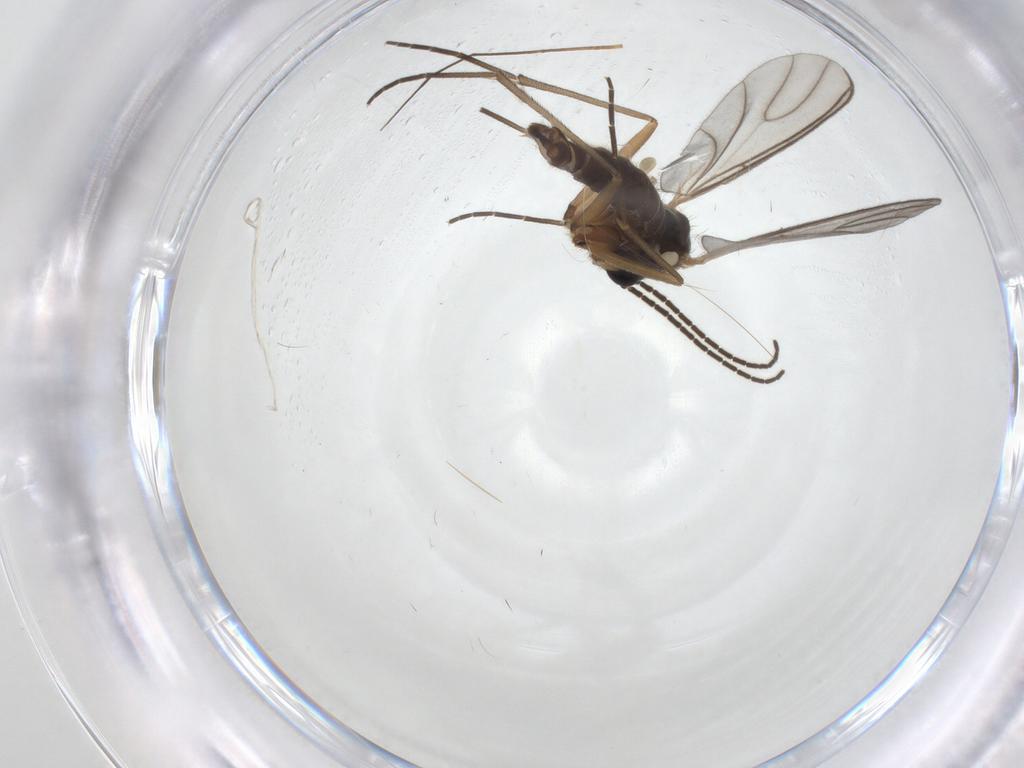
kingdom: Animalia
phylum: Arthropoda
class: Insecta
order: Diptera
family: Sciaridae
